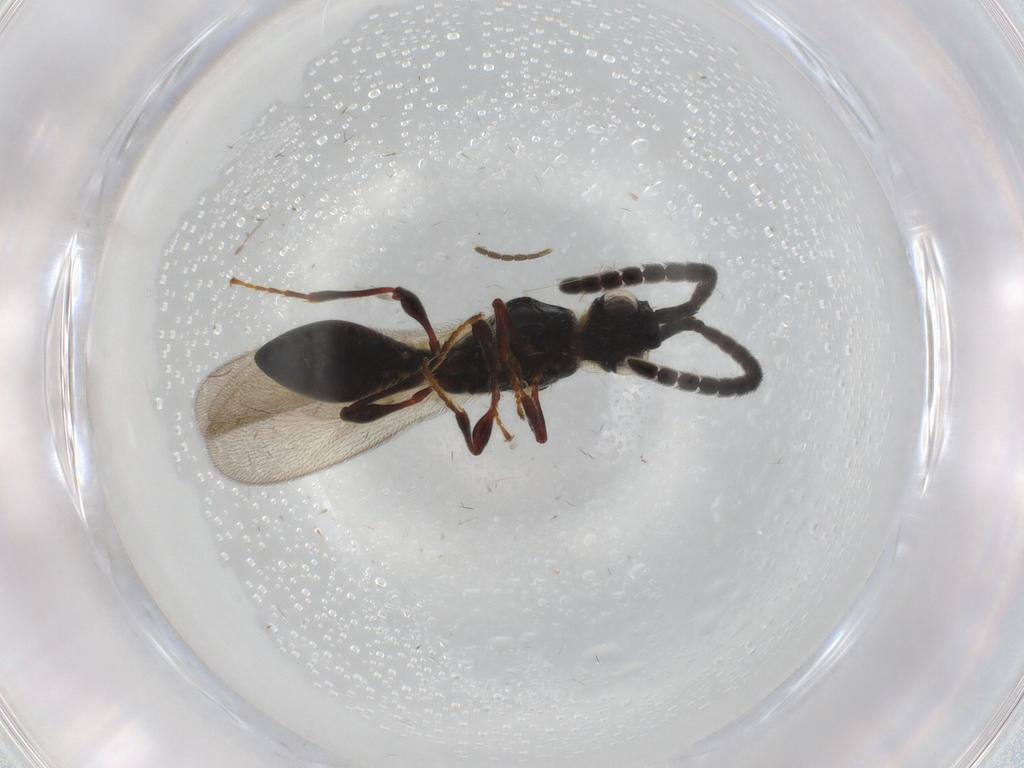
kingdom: Animalia
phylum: Arthropoda
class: Insecta
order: Hymenoptera
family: Diapriidae
